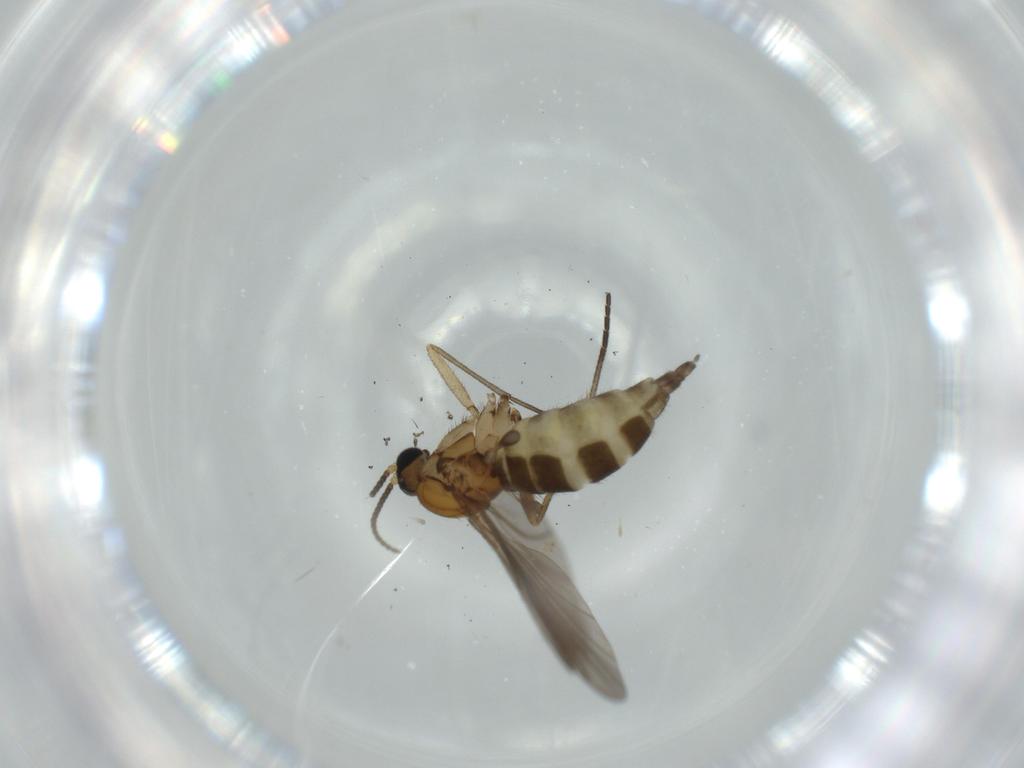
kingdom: Animalia
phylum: Arthropoda
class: Insecta
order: Diptera
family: Sciaridae
